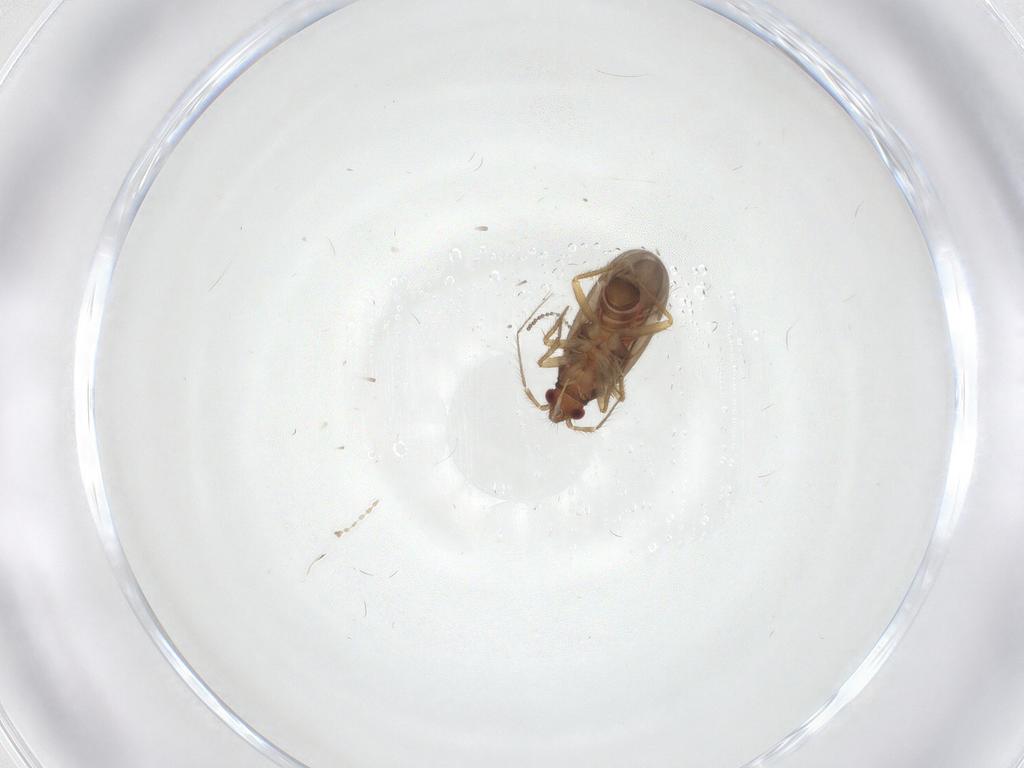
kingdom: Animalia
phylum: Arthropoda
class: Insecta
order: Hemiptera
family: Ceratocombidae
